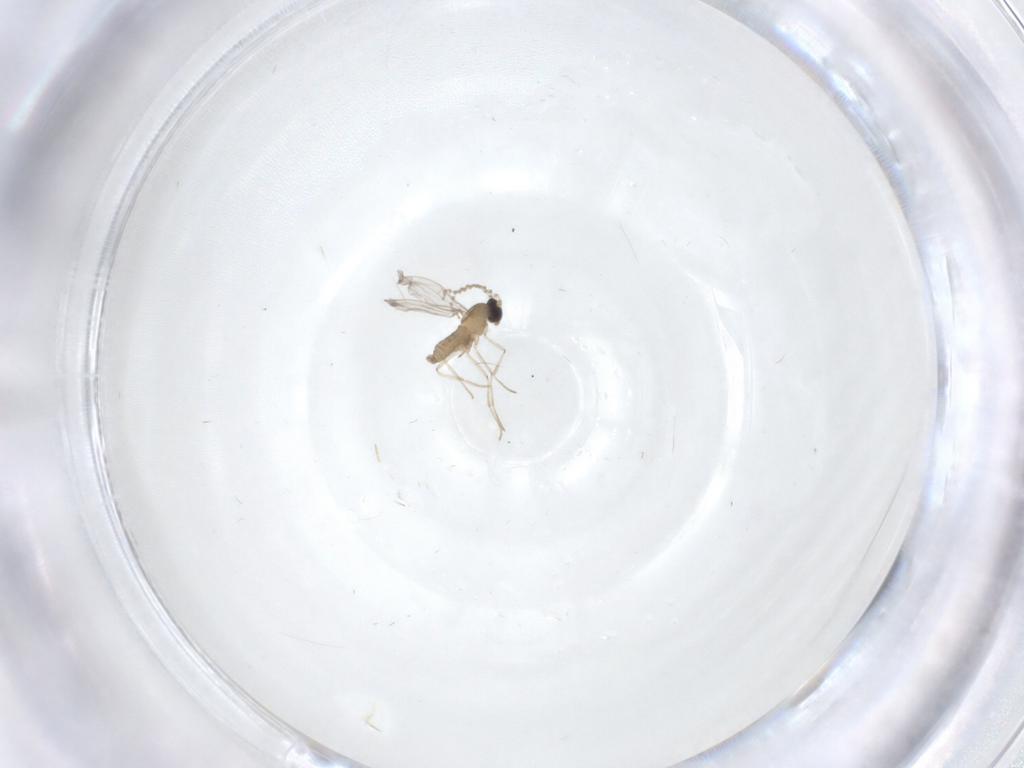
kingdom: Animalia
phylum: Arthropoda
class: Insecta
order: Diptera
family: Cecidomyiidae
